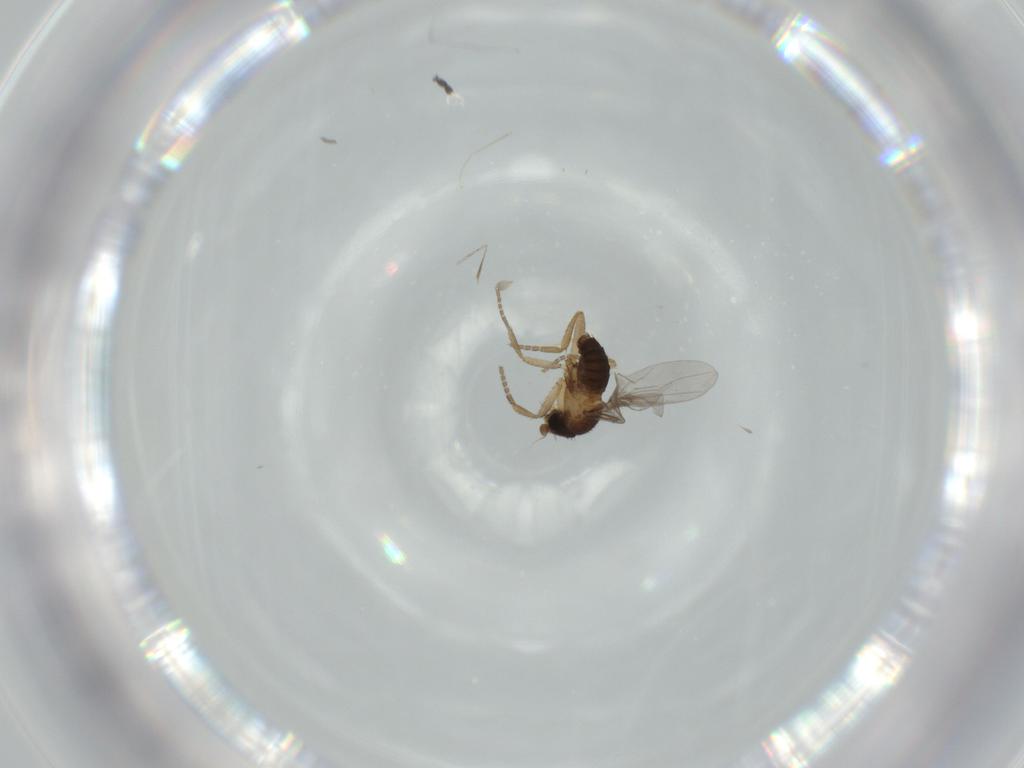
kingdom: Animalia
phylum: Arthropoda
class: Insecta
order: Diptera
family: Phoridae
